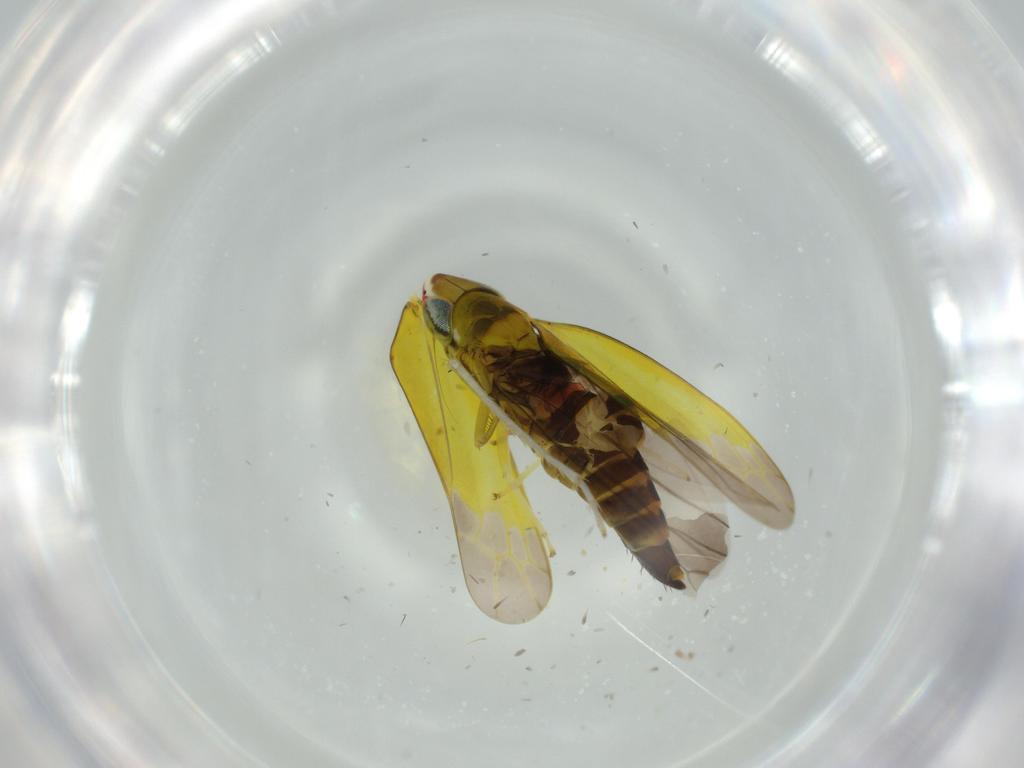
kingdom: Animalia
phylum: Arthropoda
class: Insecta
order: Hemiptera
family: Cicadellidae
